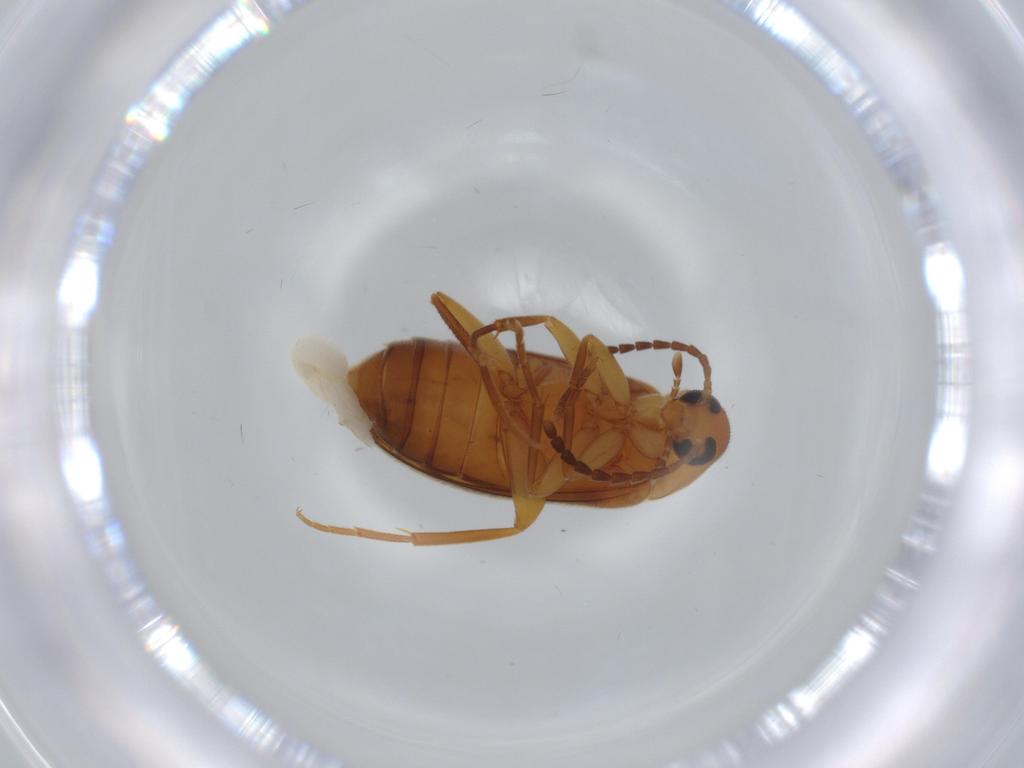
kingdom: Animalia
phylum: Arthropoda
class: Insecta
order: Coleoptera
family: Scraptiidae
